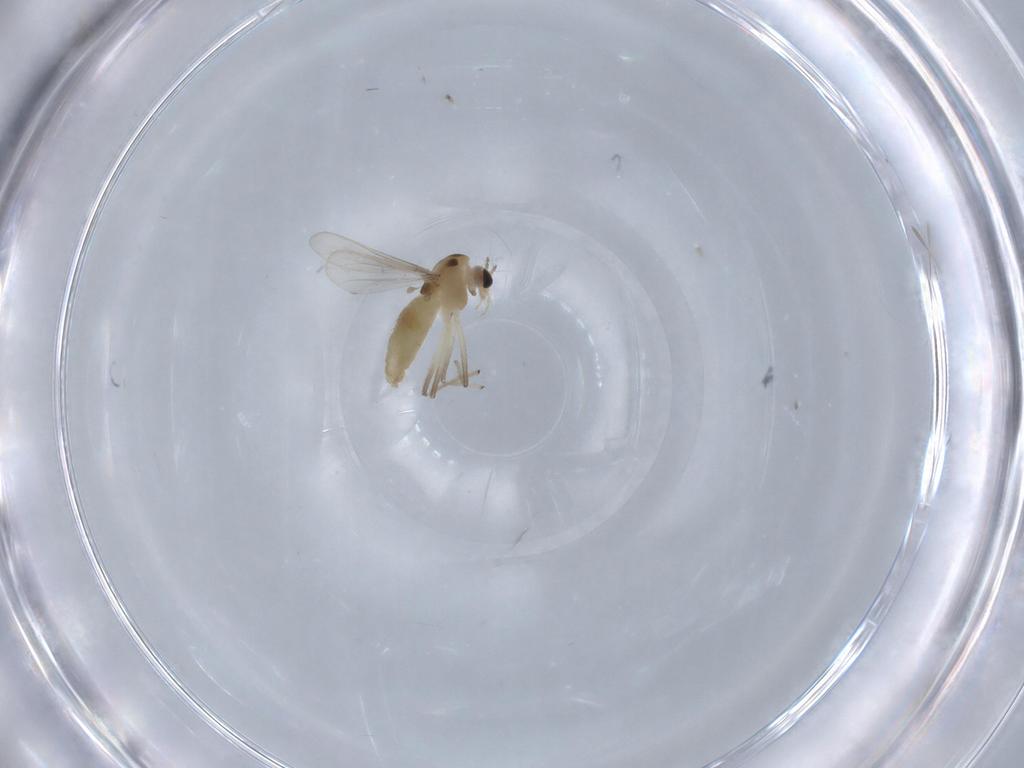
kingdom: Animalia
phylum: Arthropoda
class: Insecta
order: Diptera
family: Chironomidae
